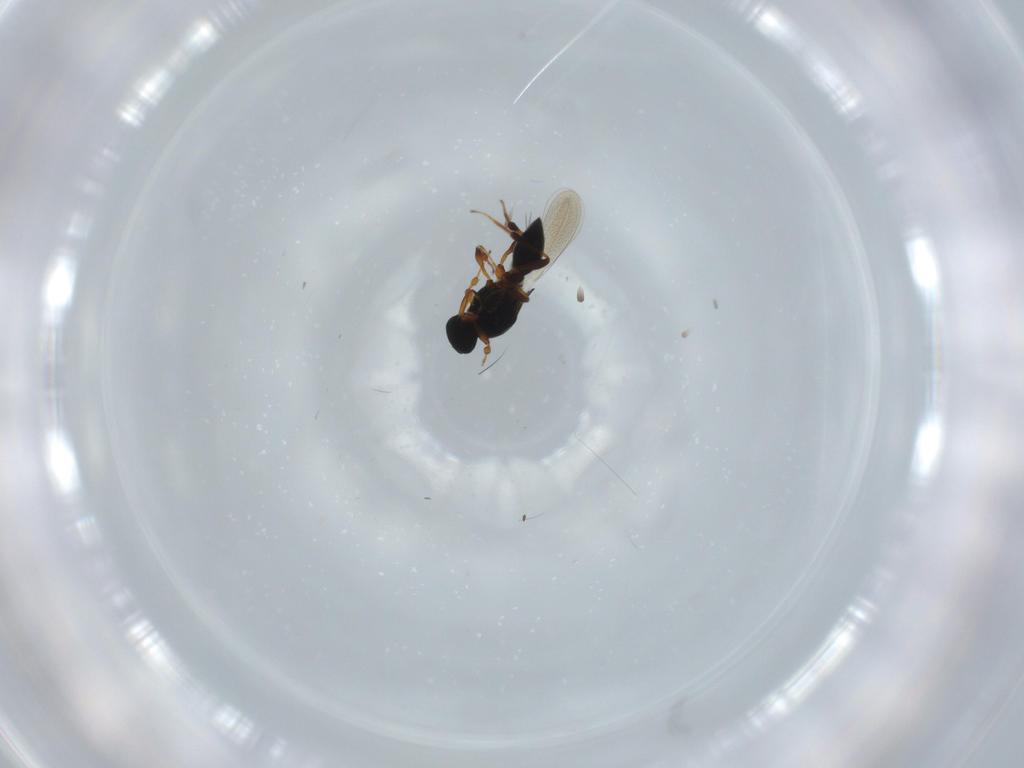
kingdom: Animalia
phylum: Arthropoda
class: Insecta
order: Hymenoptera
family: Platygastridae
